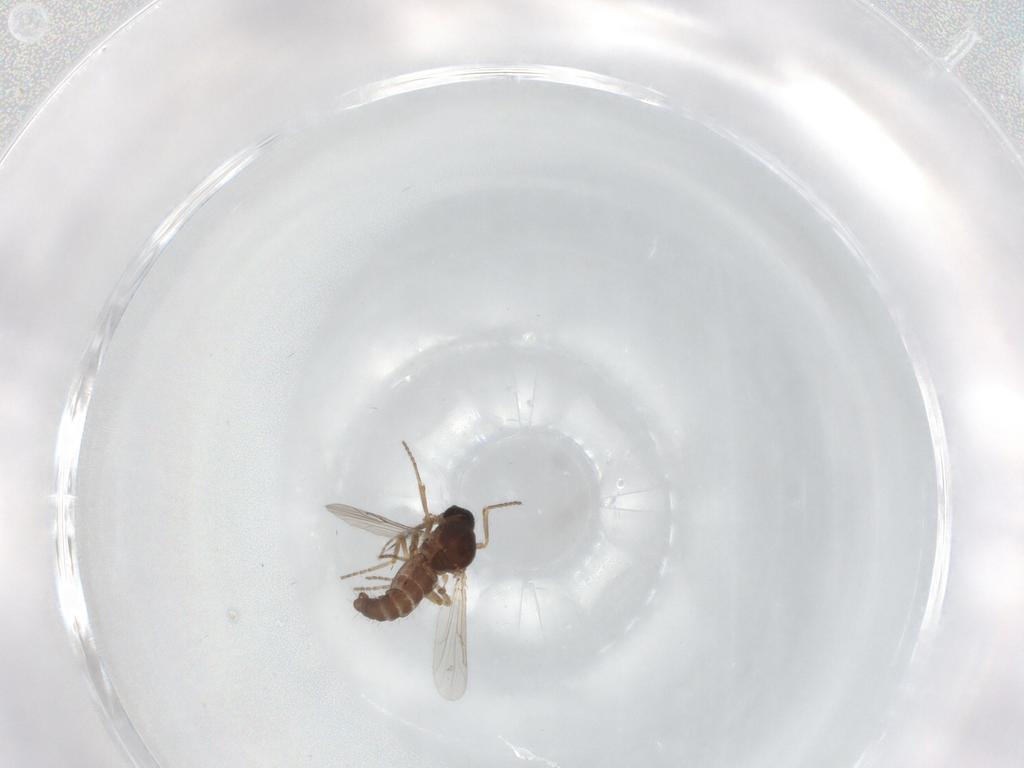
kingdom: Animalia
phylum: Arthropoda
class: Insecta
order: Diptera
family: Ceratopogonidae
